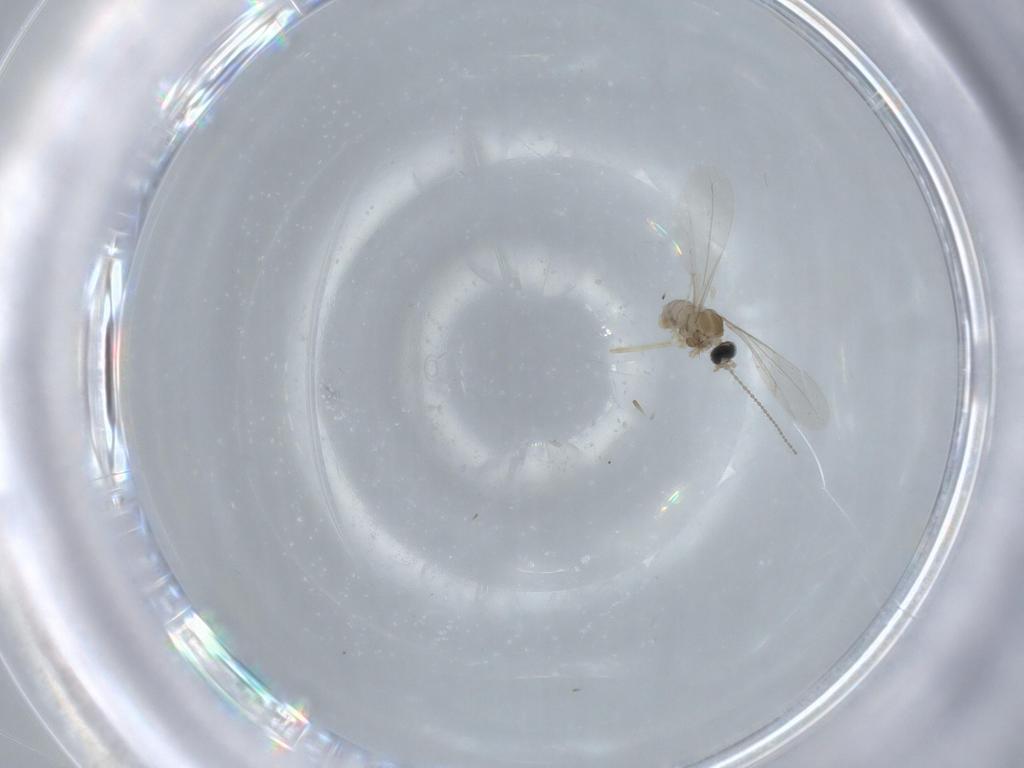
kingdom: Animalia
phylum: Arthropoda
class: Insecta
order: Diptera
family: Cecidomyiidae
